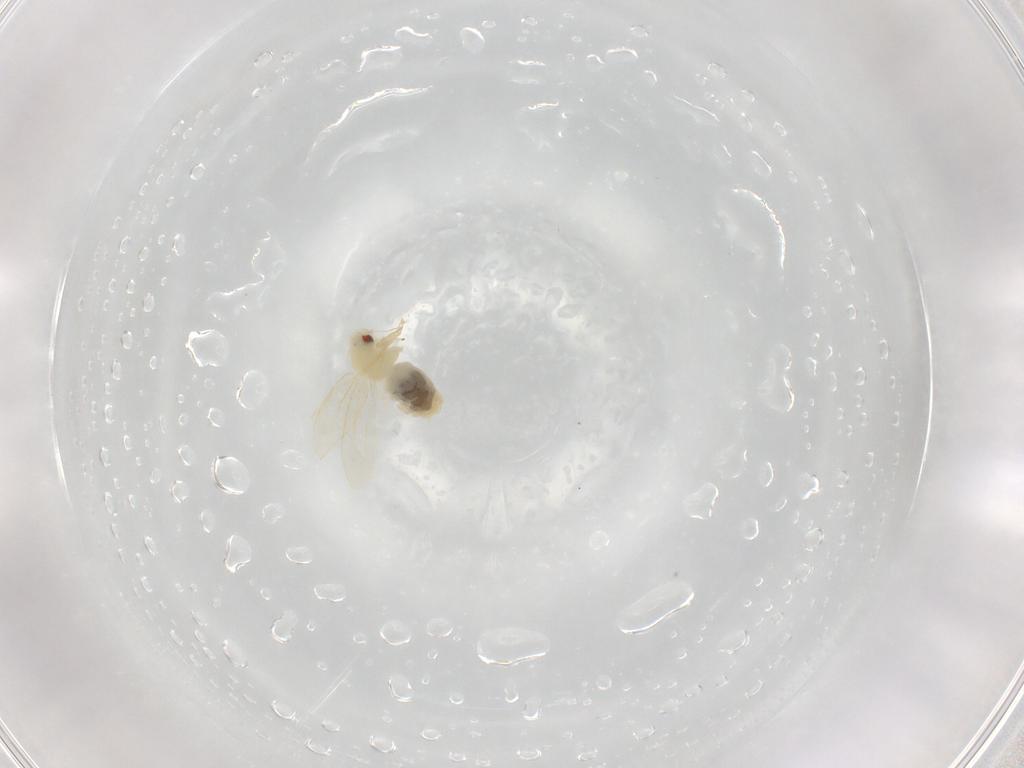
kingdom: Animalia
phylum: Arthropoda
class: Insecta
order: Hemiptera
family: Aleyrodidae
